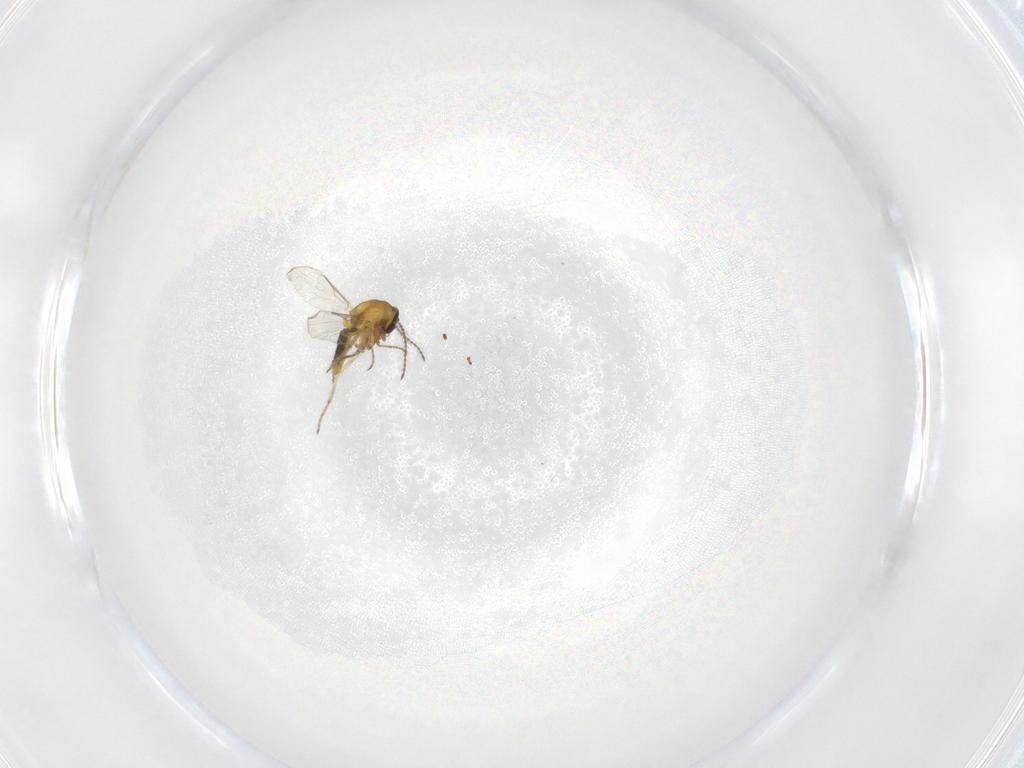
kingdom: Animalia
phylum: Arthropoda
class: Insecta
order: Diptera
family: Ceratopogonidae
